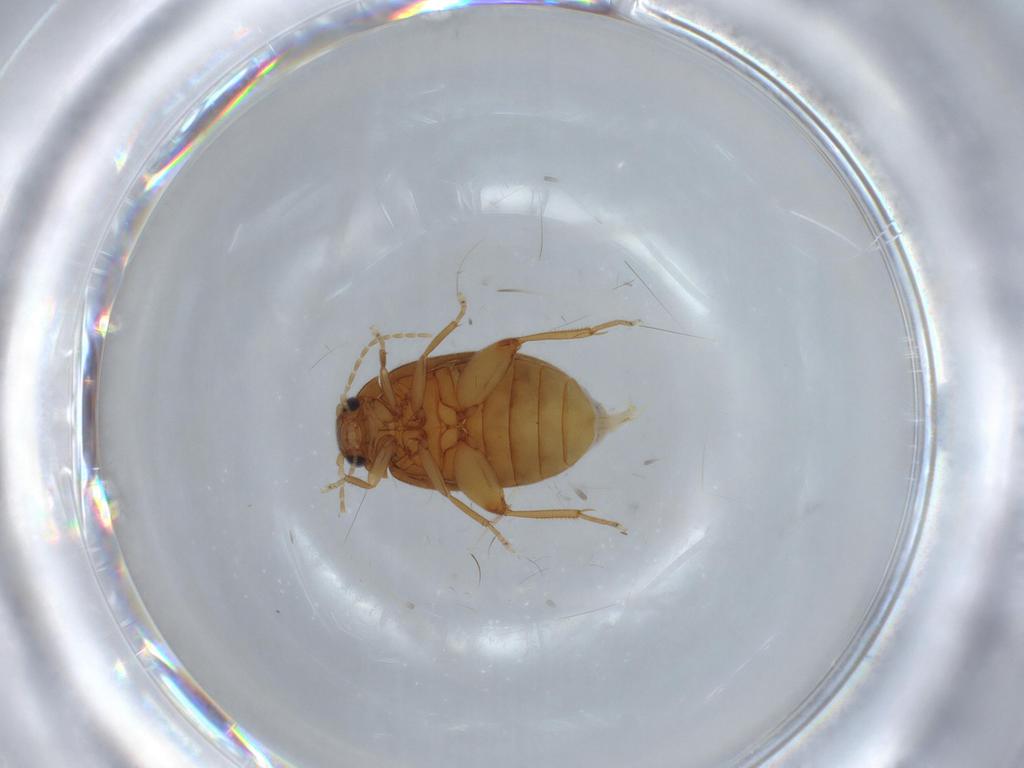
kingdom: Animalia
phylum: Arthropoda
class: Insecta
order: Coleoptera
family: Scirtidae
